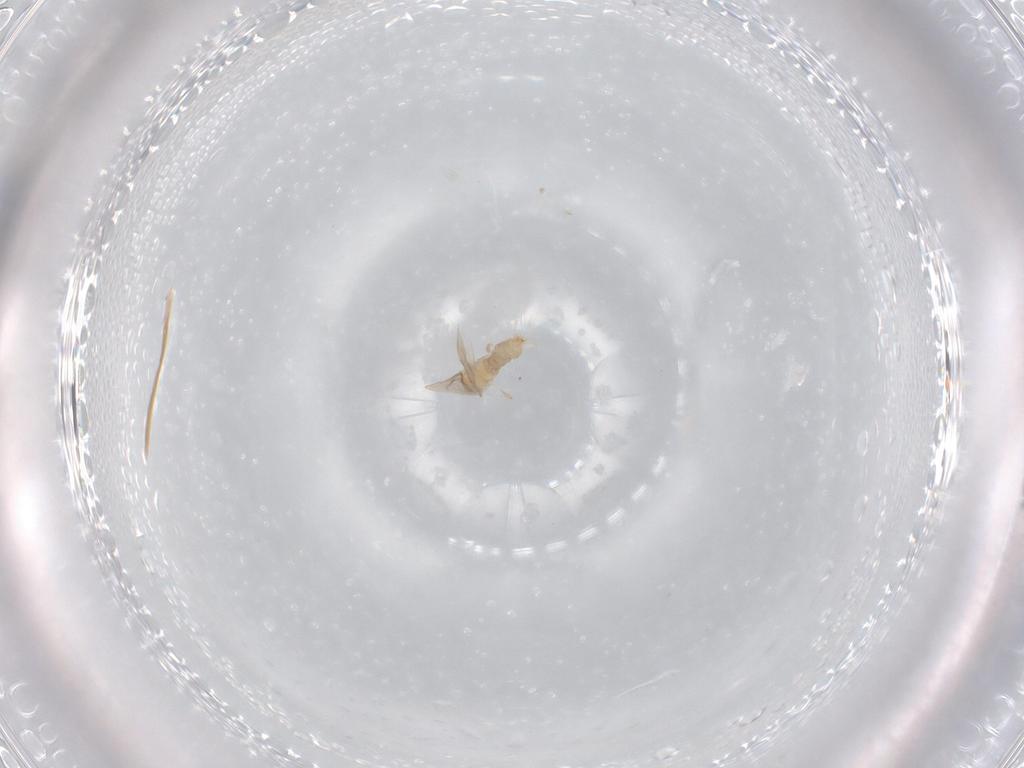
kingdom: Animalia
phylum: Arthropoda
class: Insecta
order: Diptera
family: Cecidomyiidae
